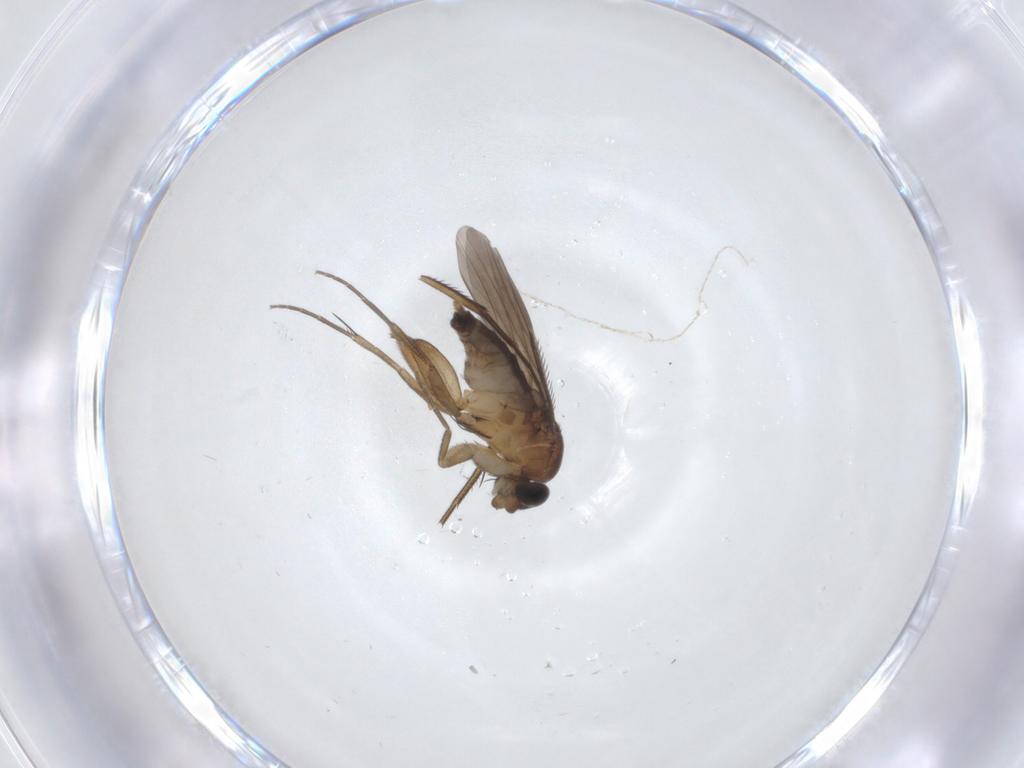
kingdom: Animalia
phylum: Arthropoda
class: Insecta
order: Diptera
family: Phoridae
